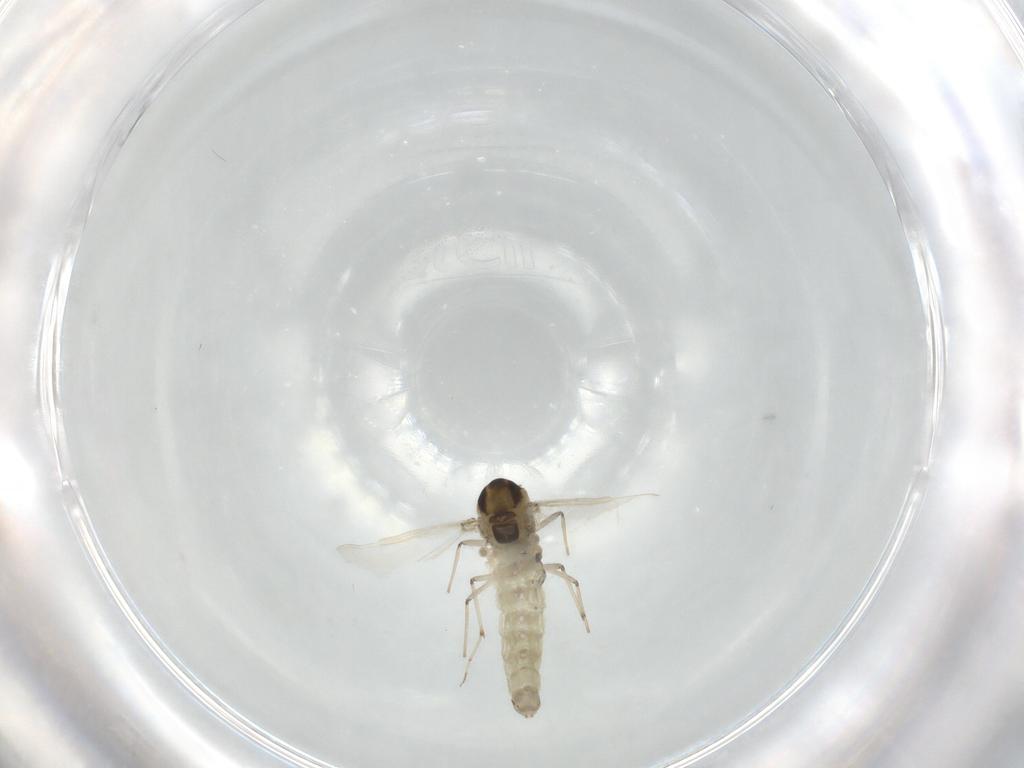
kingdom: Animalia
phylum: Arthropoda
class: Insecta
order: Diptera
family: Chironomidae
